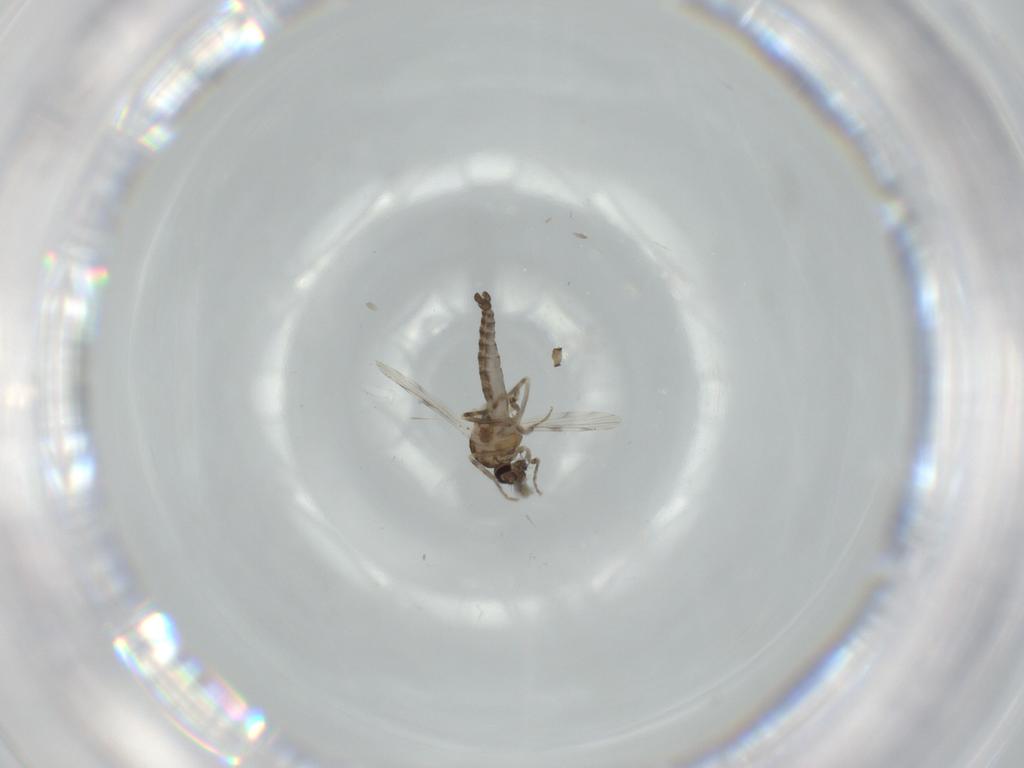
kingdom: Animalia
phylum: Arthropoda
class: Insecta
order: Diptera
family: Ceratopogonidae
